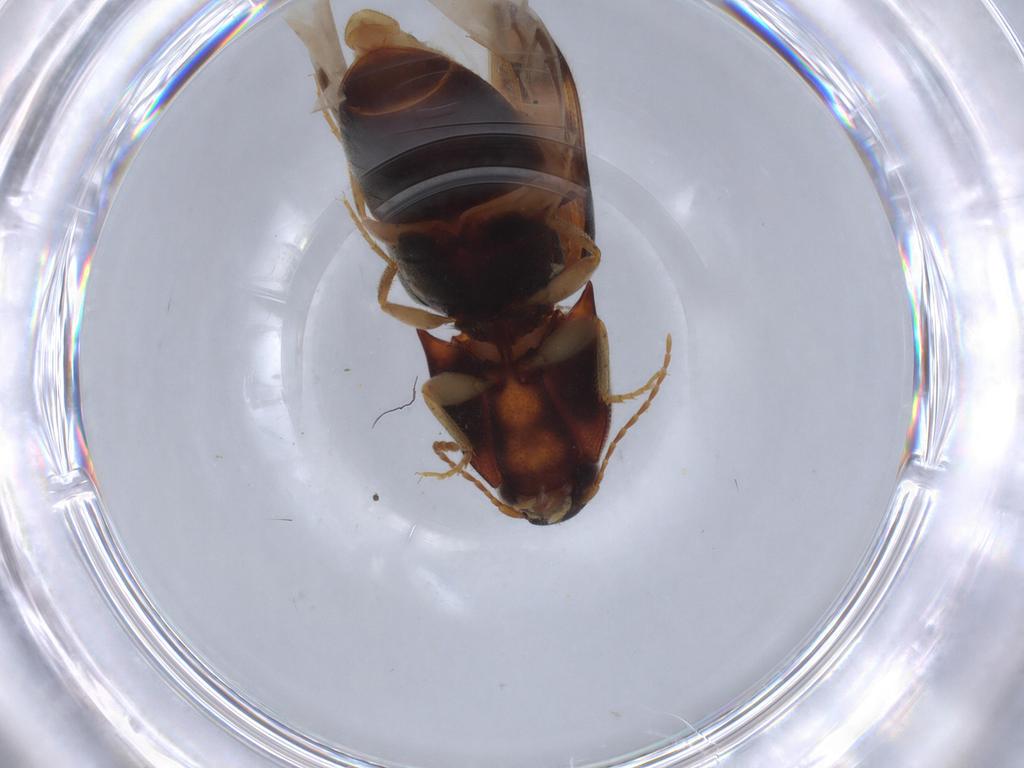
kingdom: Animalia
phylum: Arthropoda
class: Insecta
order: Coleoptera
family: Elateridae
